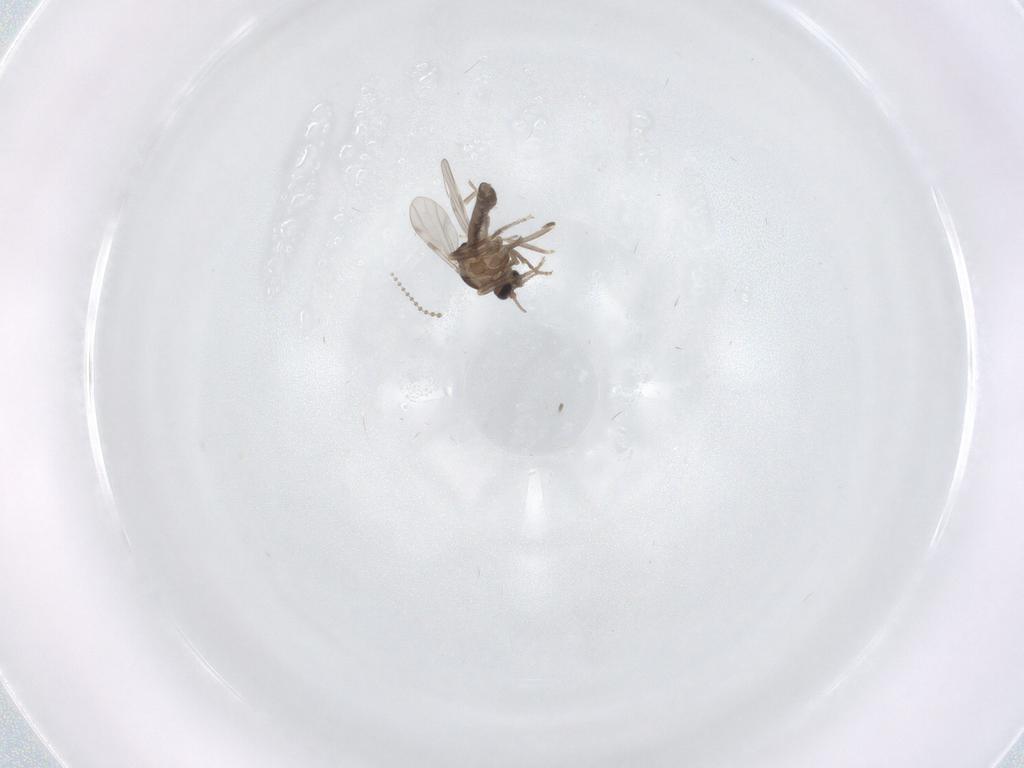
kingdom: Animalia
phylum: Arthropoda
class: Insecta
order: Diptera
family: Ceratopogonidae
